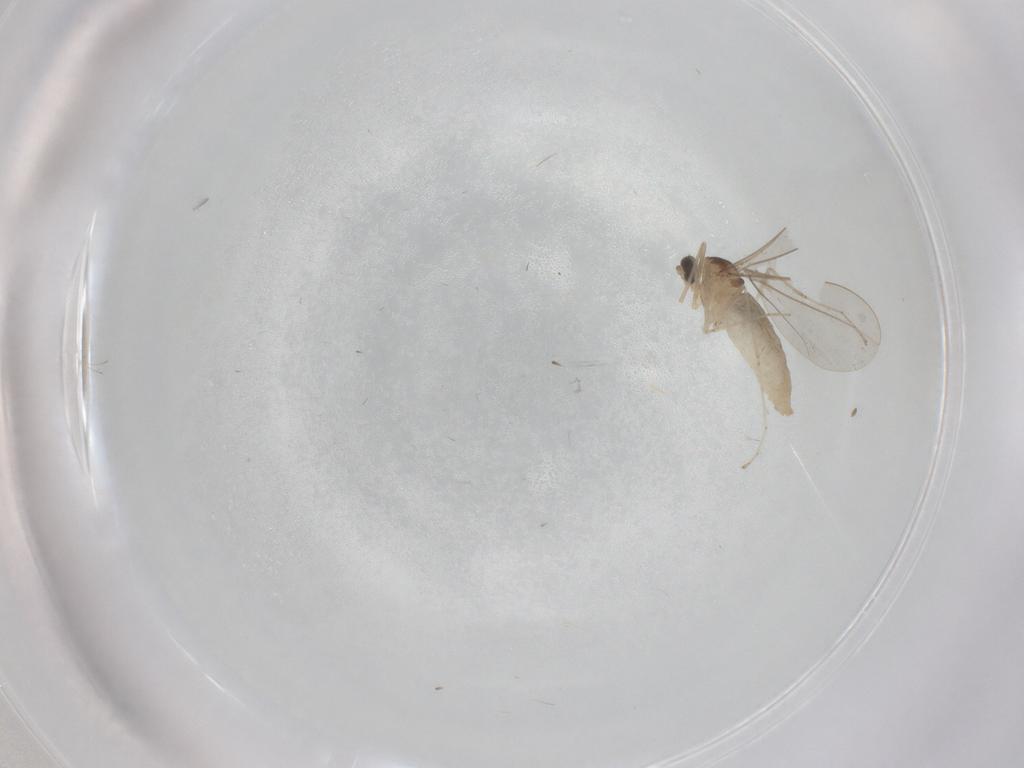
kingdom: Animalia
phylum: Arthropoda
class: Insecta
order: Diptera
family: Cecidomyiidae
